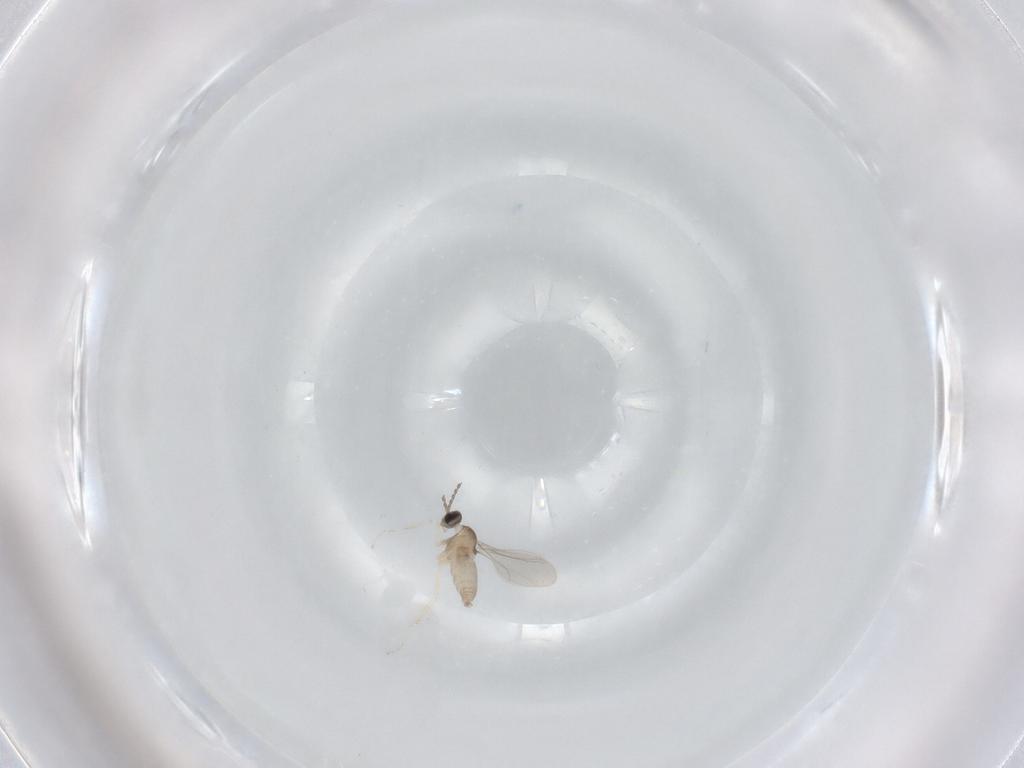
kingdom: Animalia
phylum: Arthropoda
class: Insecta
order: Diptera
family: Cecidomyiidae
